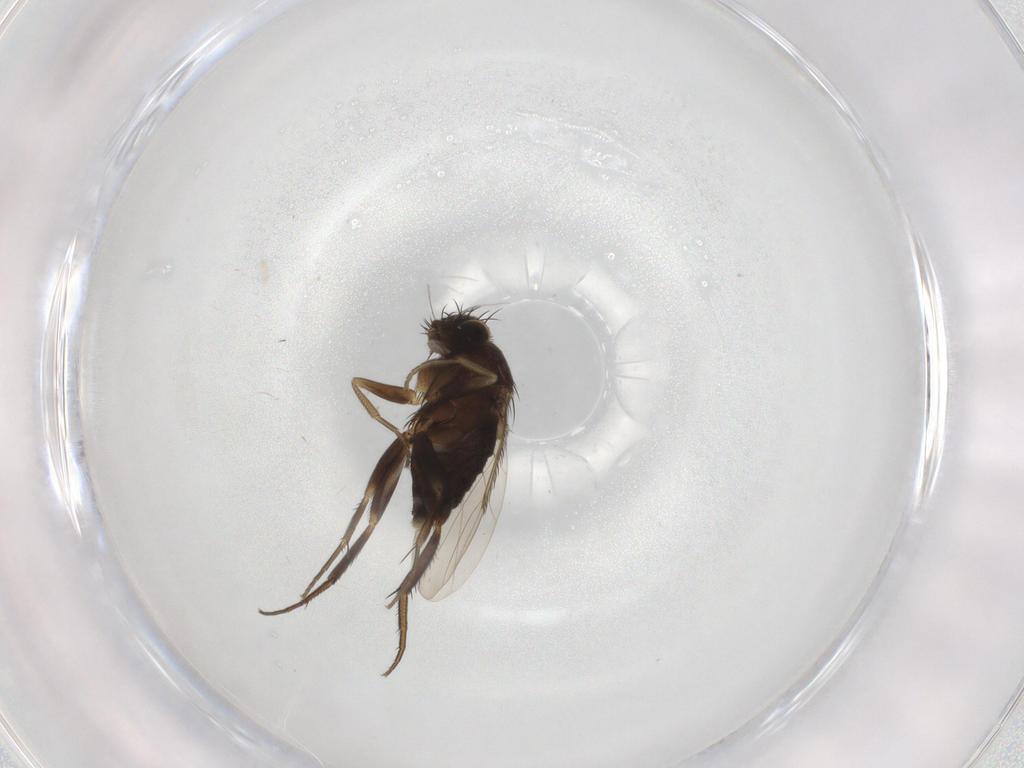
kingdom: Animalia
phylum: Arthropoda
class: Insecta
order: Diptera
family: Phoridae
